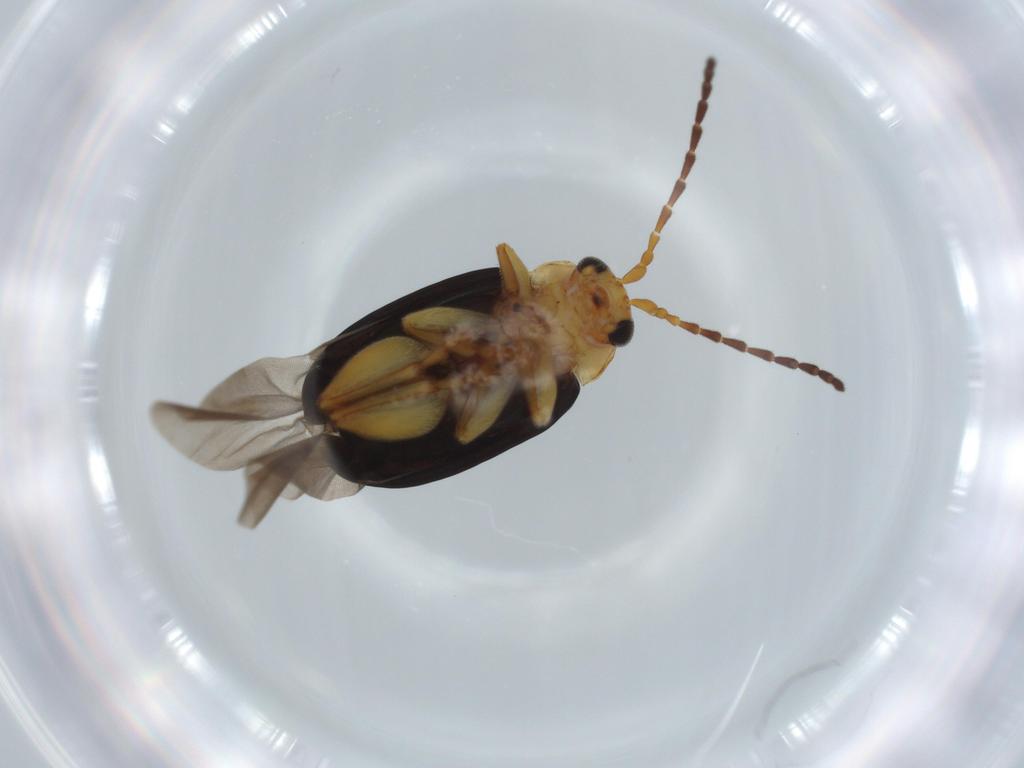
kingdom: Animalia
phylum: Arthropoda
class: Insecta
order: Coleoptera
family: Chrysomelidae
